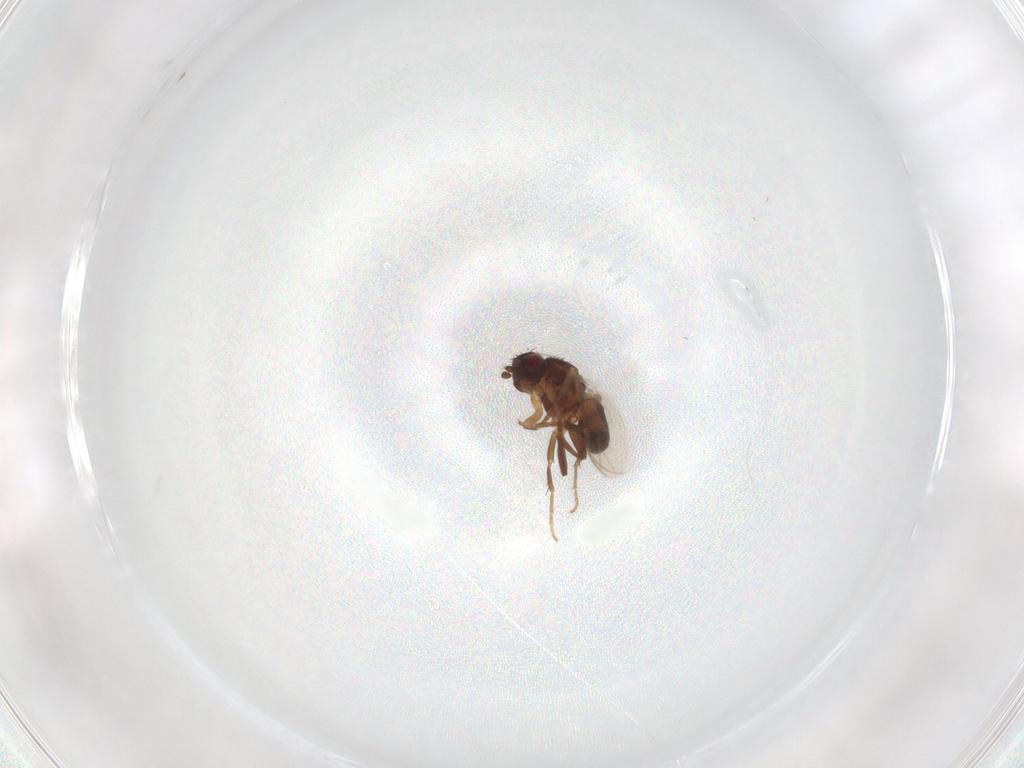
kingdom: Animalia
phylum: Arthropoda
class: Insecta
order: Diptera
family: Sphaeroceridae
